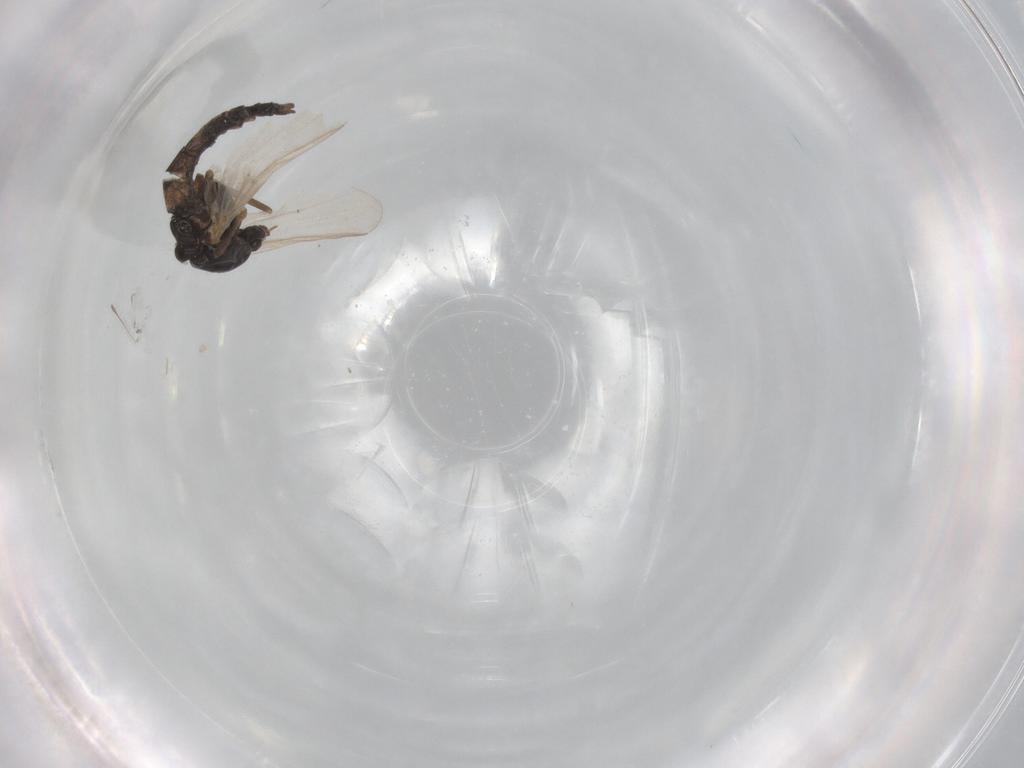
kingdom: Animalia
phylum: Arthropoda
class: Insecta
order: Diptera
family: Chironomidae
